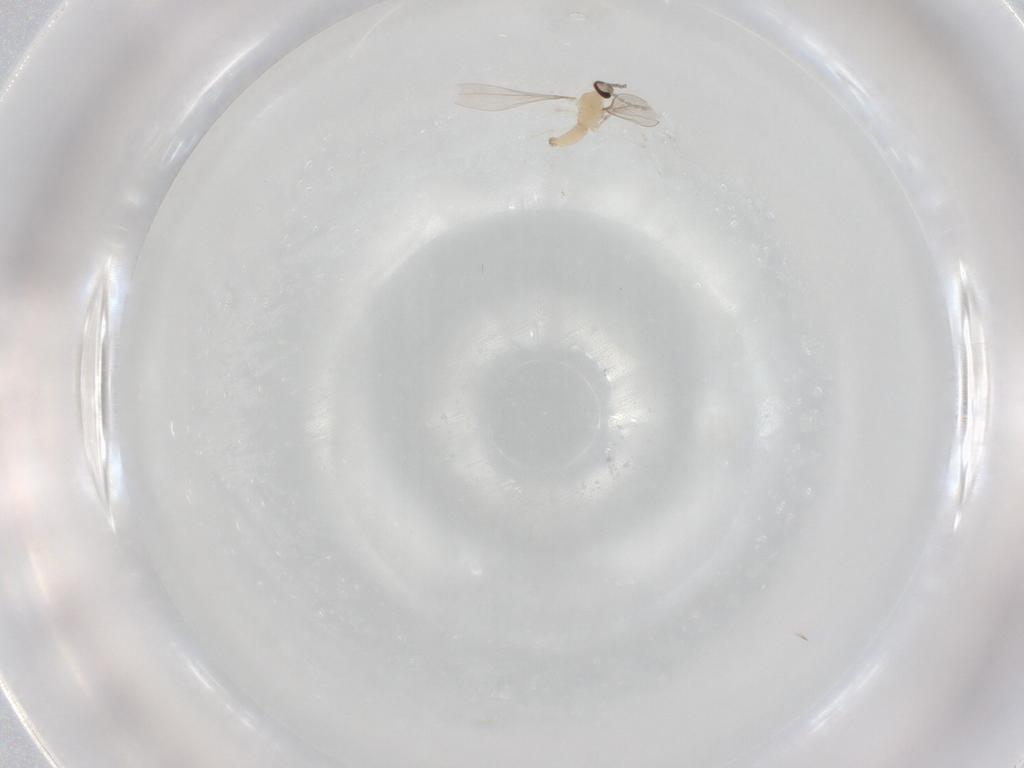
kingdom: Animalia
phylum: Arthropoda
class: Insecta
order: Diptera
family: Cecidomyiidae
